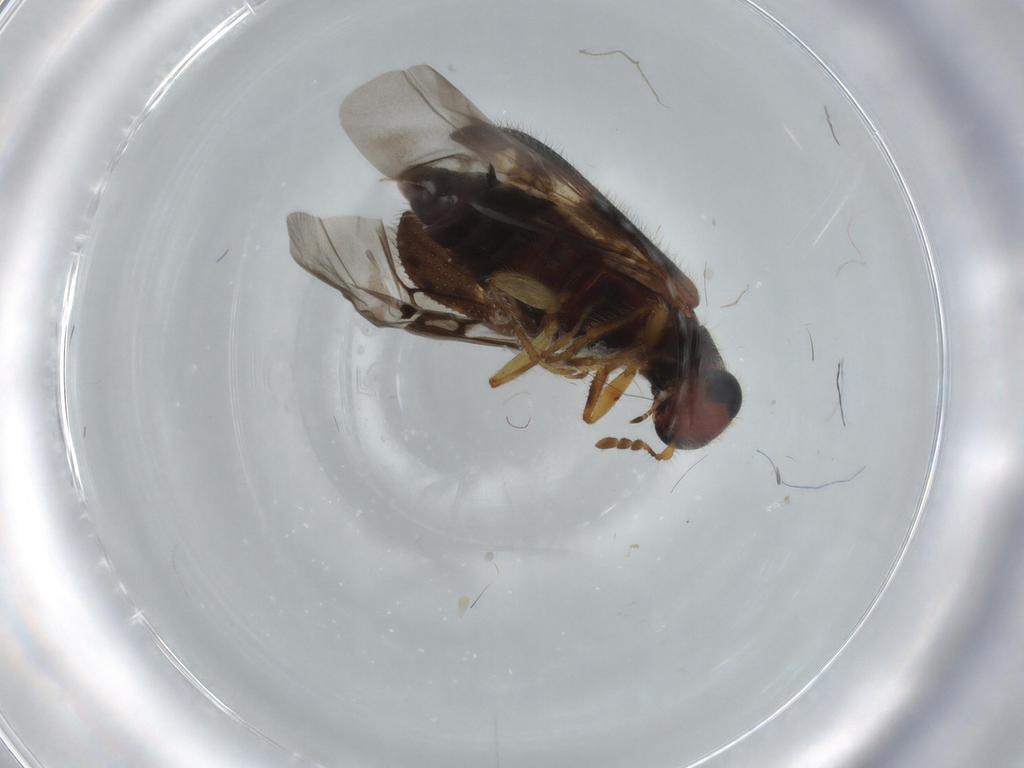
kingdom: Animalia
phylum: Arthropoda
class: Insecta
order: Coleoptera
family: Cleridae
